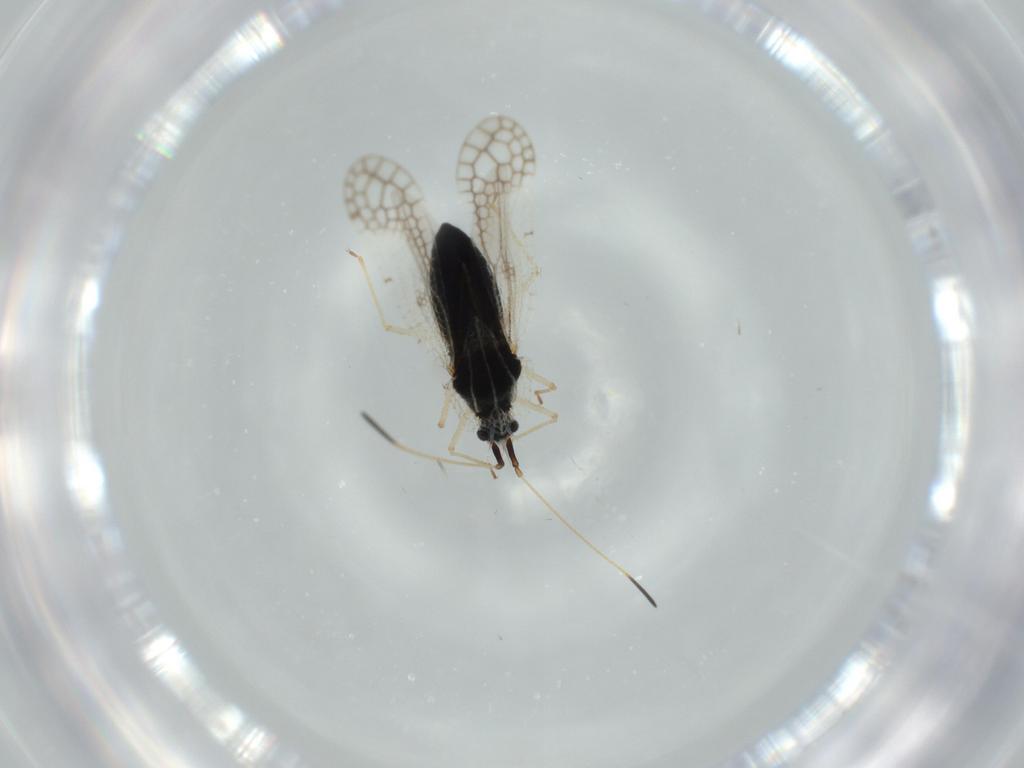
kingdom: Animalia
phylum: Arthropoda
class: Insecta
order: Hemiptera
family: Tingidae
